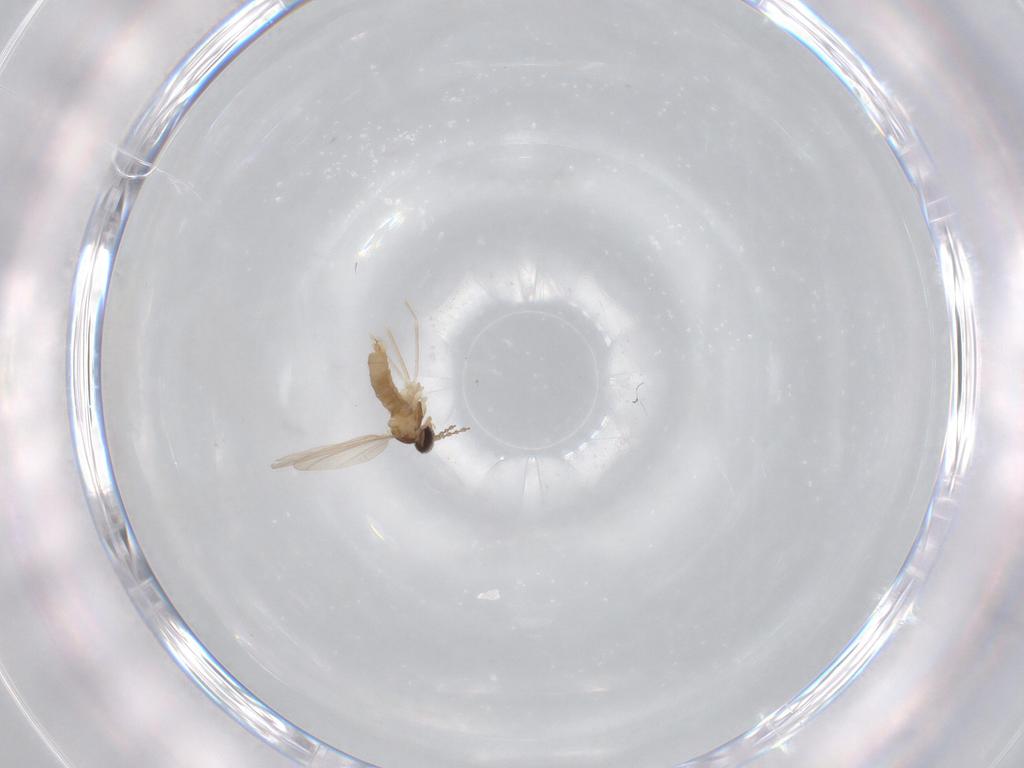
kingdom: Animalia
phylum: Arthropoda
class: Insecta
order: Diptera
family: Cecidomyiidae
